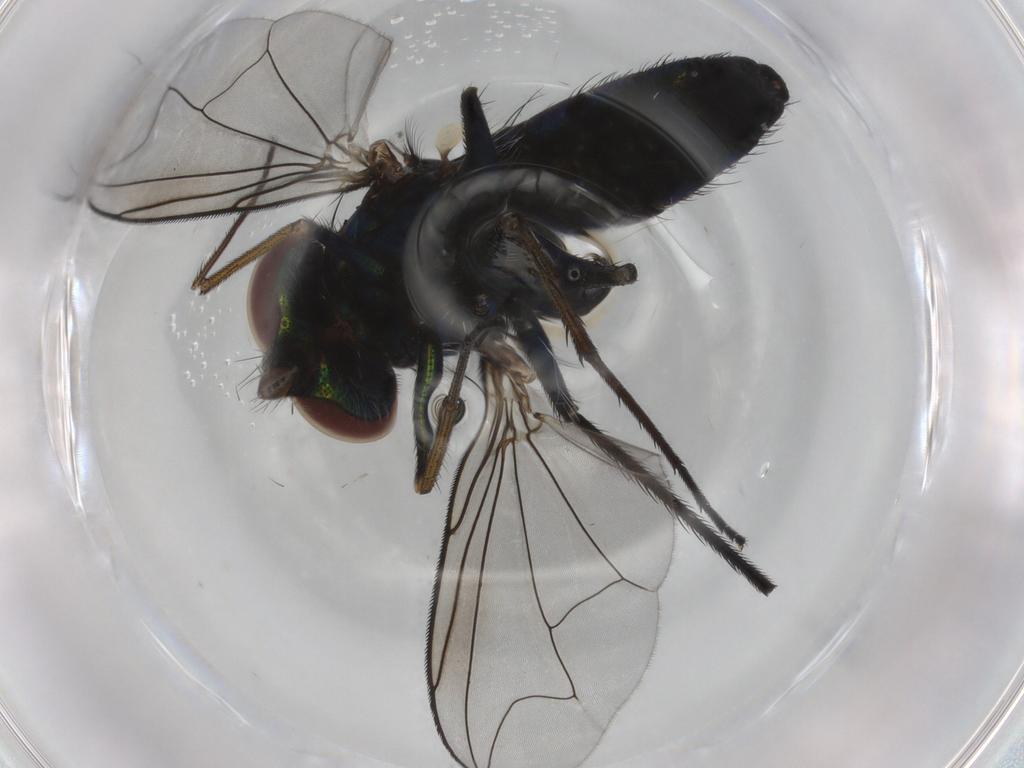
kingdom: Animalia
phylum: Arthropoda
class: Insecta
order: Diptera
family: Dolichopodidae
